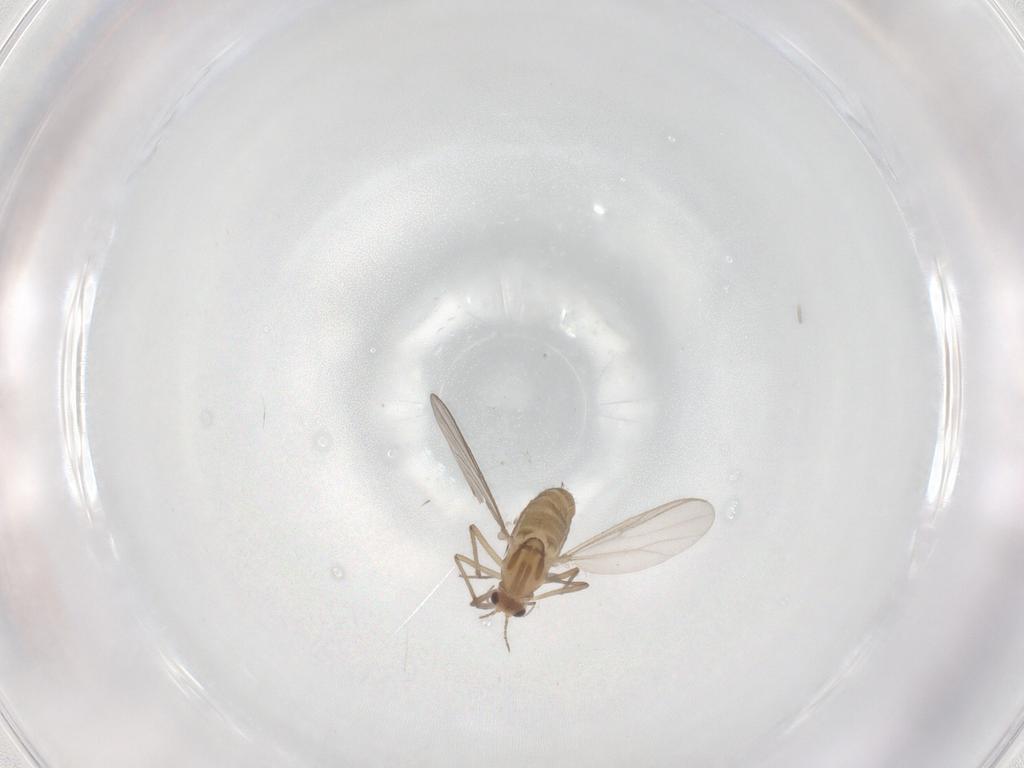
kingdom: Animalia
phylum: Arthropoda
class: Insecta
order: Diptera
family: Chironomidae
